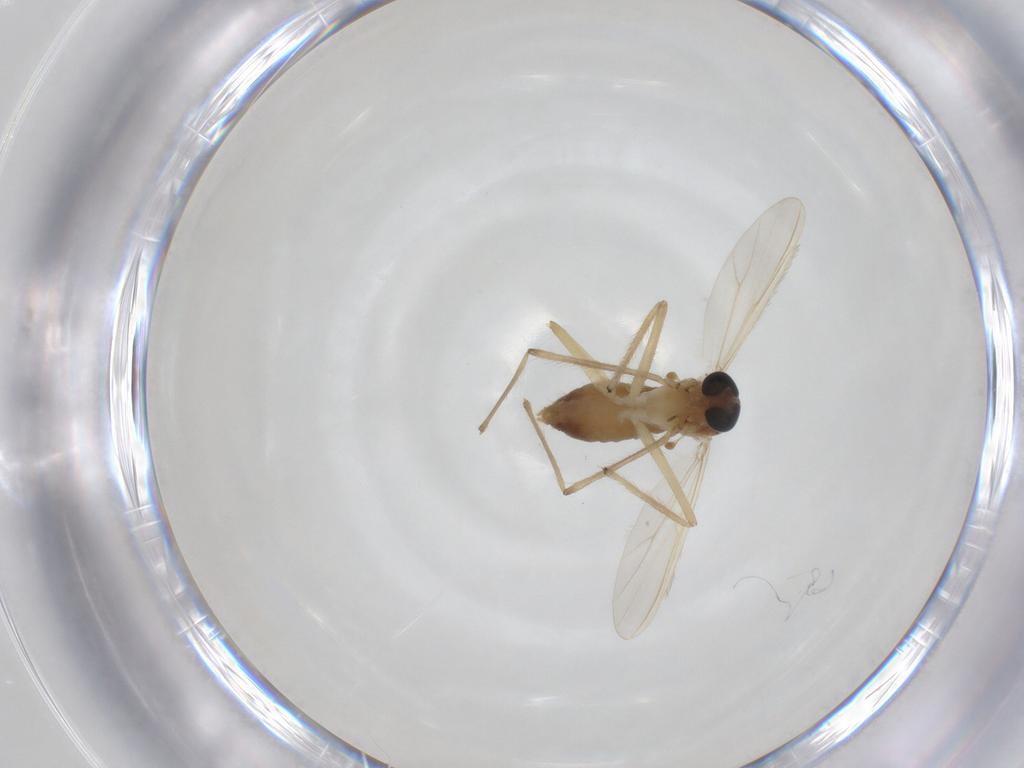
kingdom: Animalia
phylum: Arthropoda
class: Insecta
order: Diptera
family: Chironomidae
